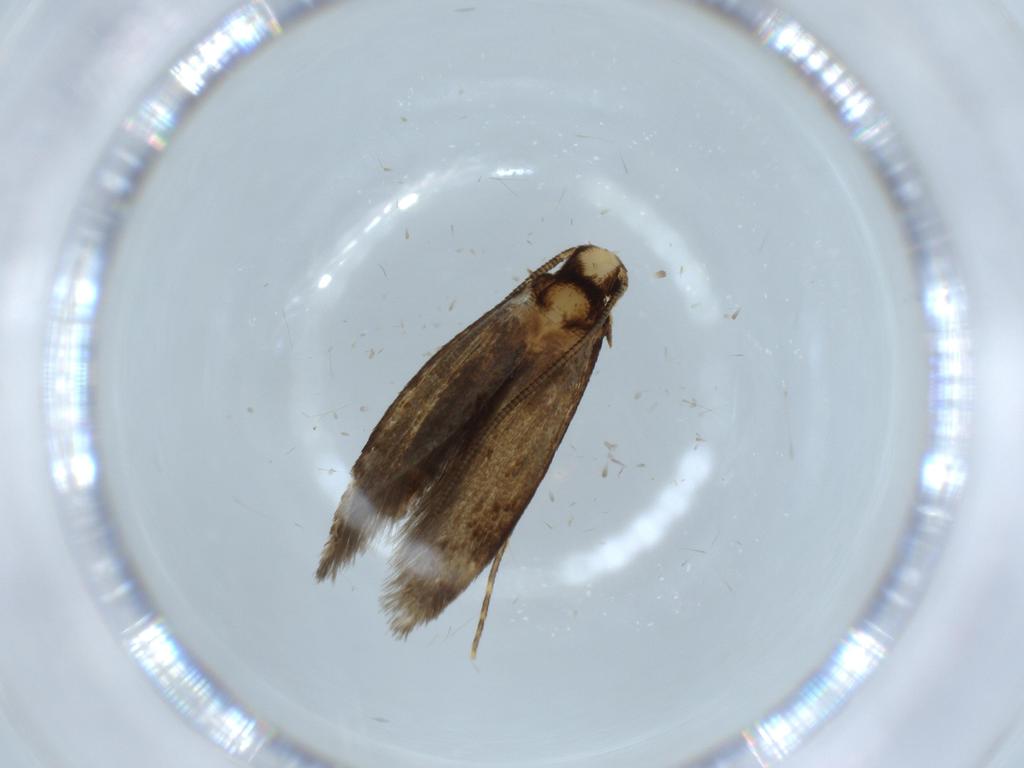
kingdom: Animalia
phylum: Arthropoda
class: Insecta
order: Lepidoptera
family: Tineidae
